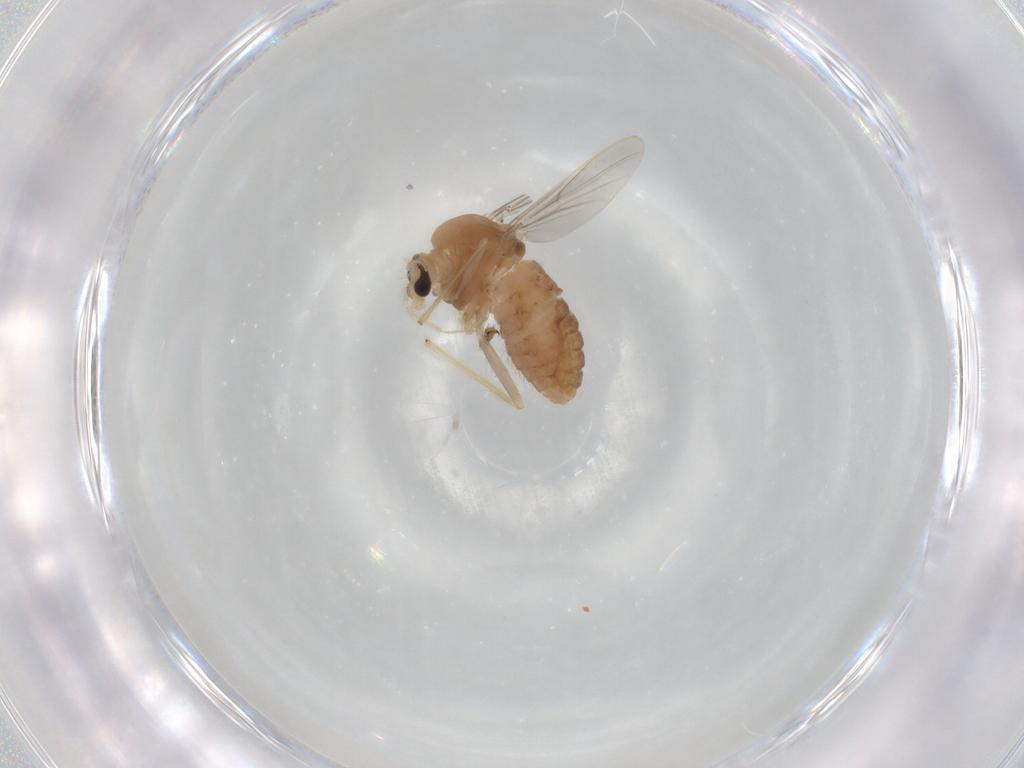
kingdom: Animalia
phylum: Arthropoda
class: Insecta
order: Diptera
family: Chironomidae
